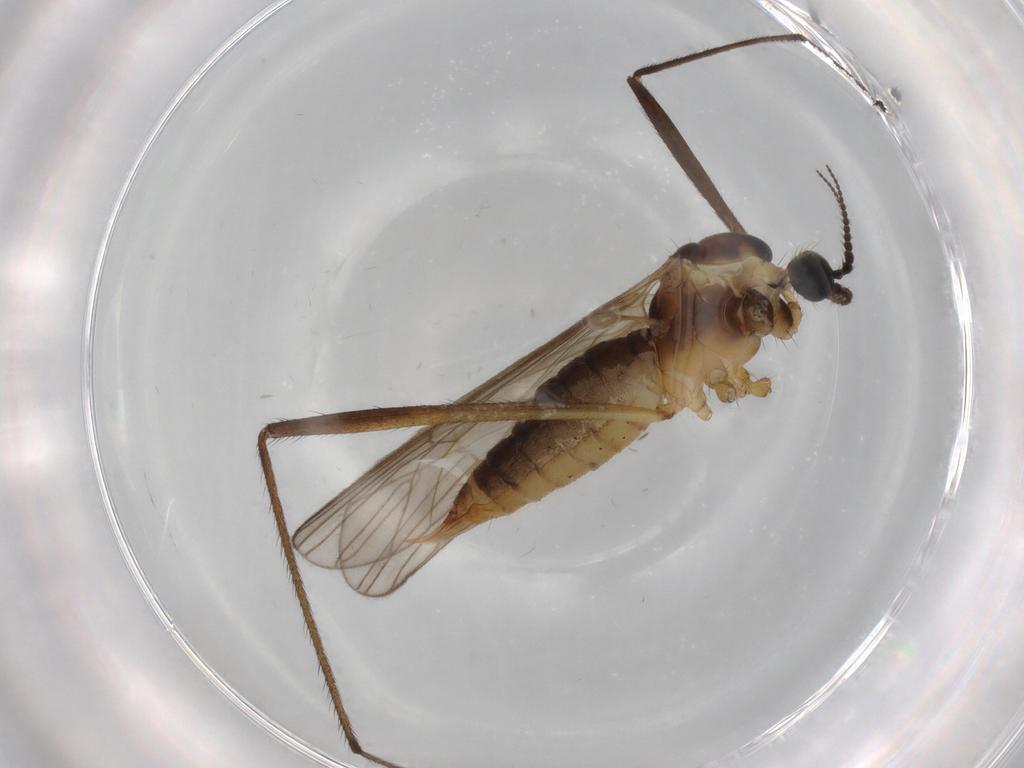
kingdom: Animalia
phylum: Arthropoda
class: Insecta
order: Diptera
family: Agromyzidae
